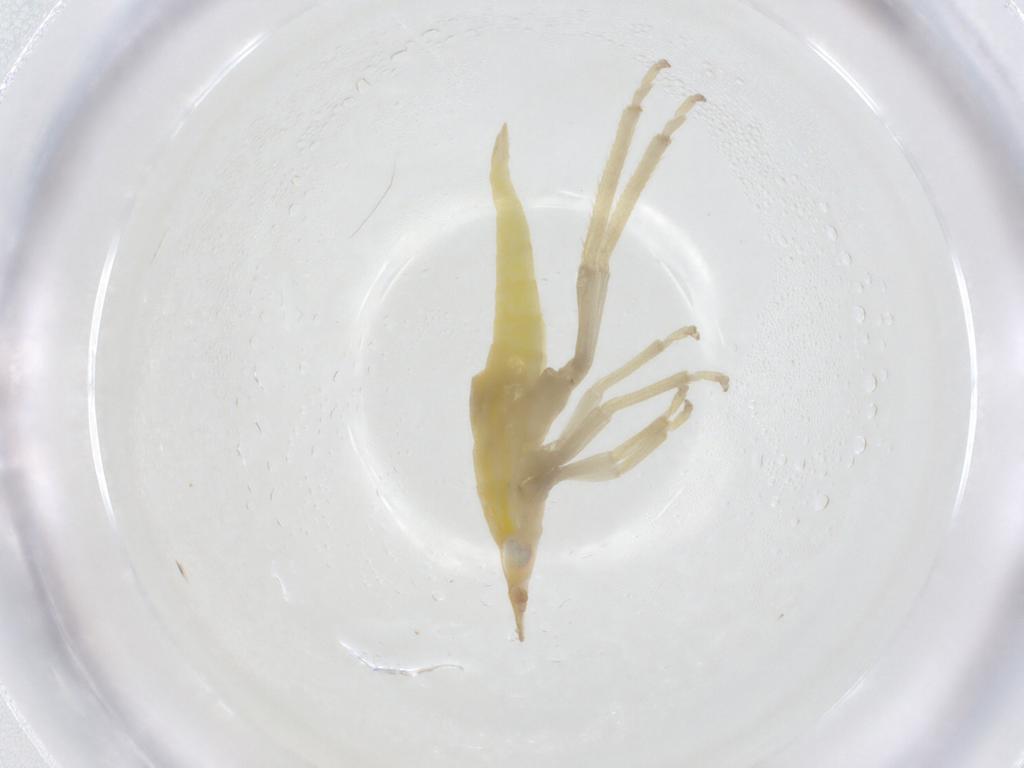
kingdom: Animalia
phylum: Arthropoda
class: Insecta
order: Hemiptera
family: Cicadellidae
